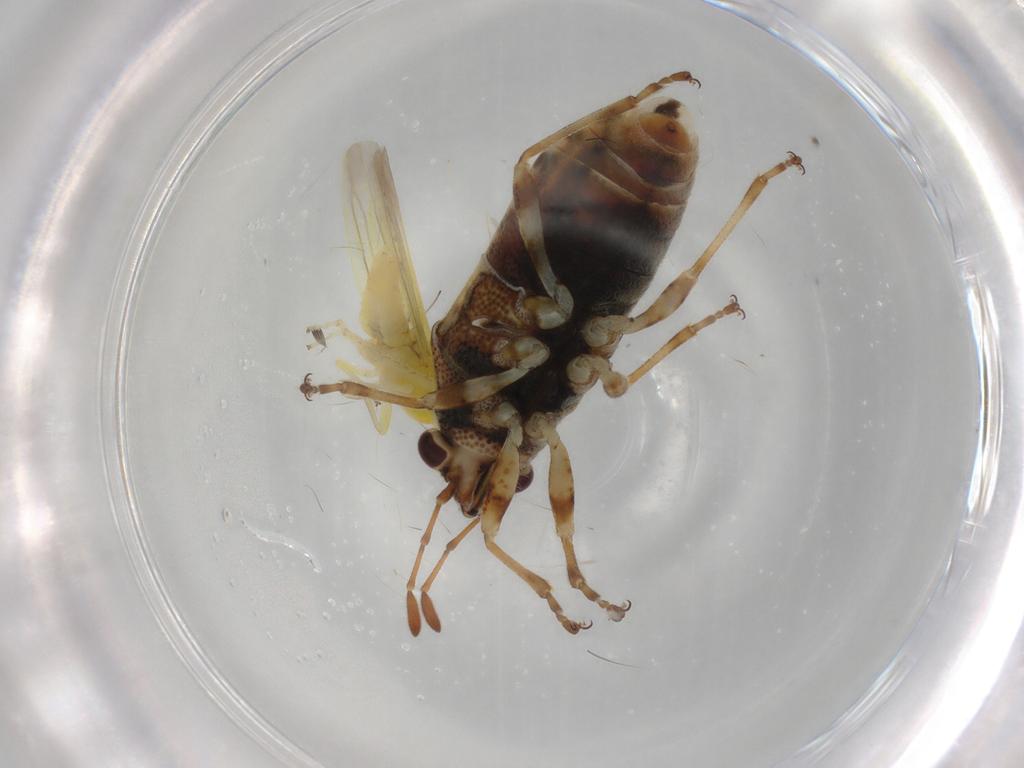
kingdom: Animalia
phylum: Arthropoda
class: Insecta
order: Hemiptera
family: Lygaeidae
